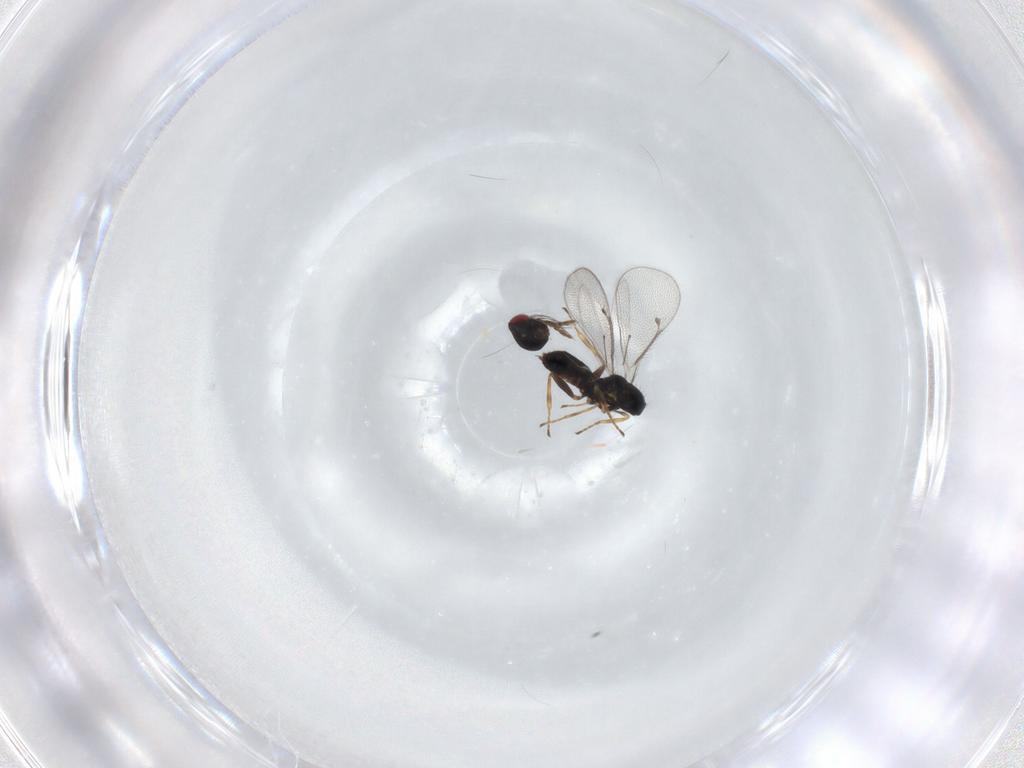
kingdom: Animalia
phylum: Arthropoda
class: Insecta
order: Hymenoptera
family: Eulophidae
